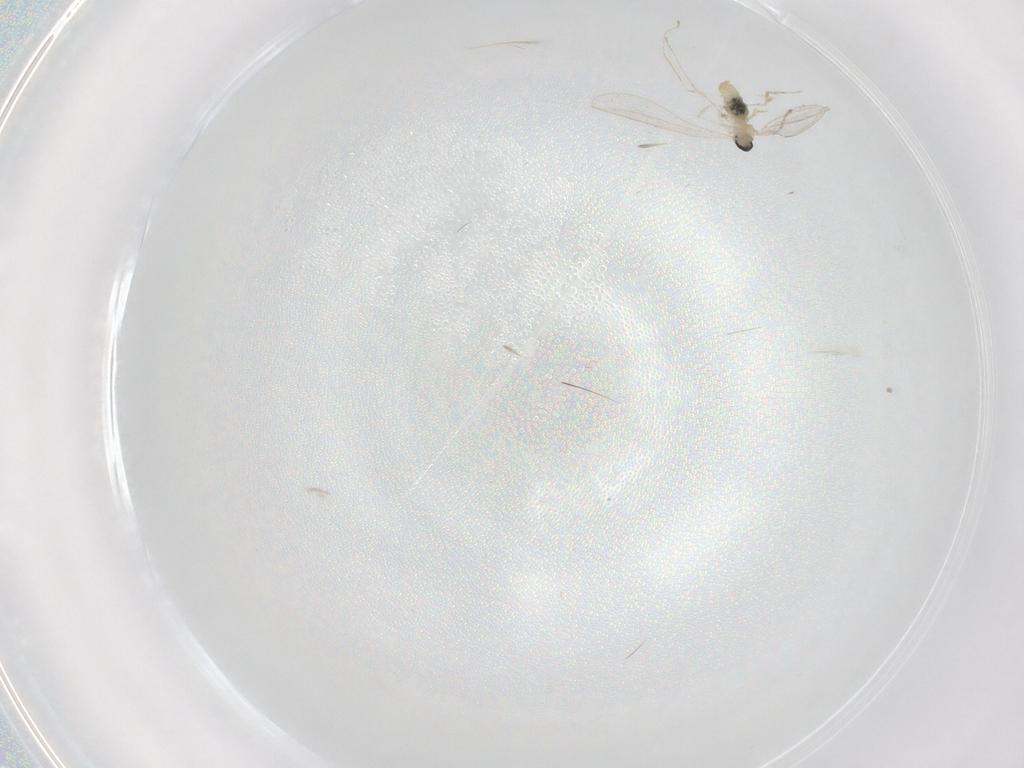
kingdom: Animalia
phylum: Arthropoda
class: Insecta
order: Diptera
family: Cecidomyiidae
